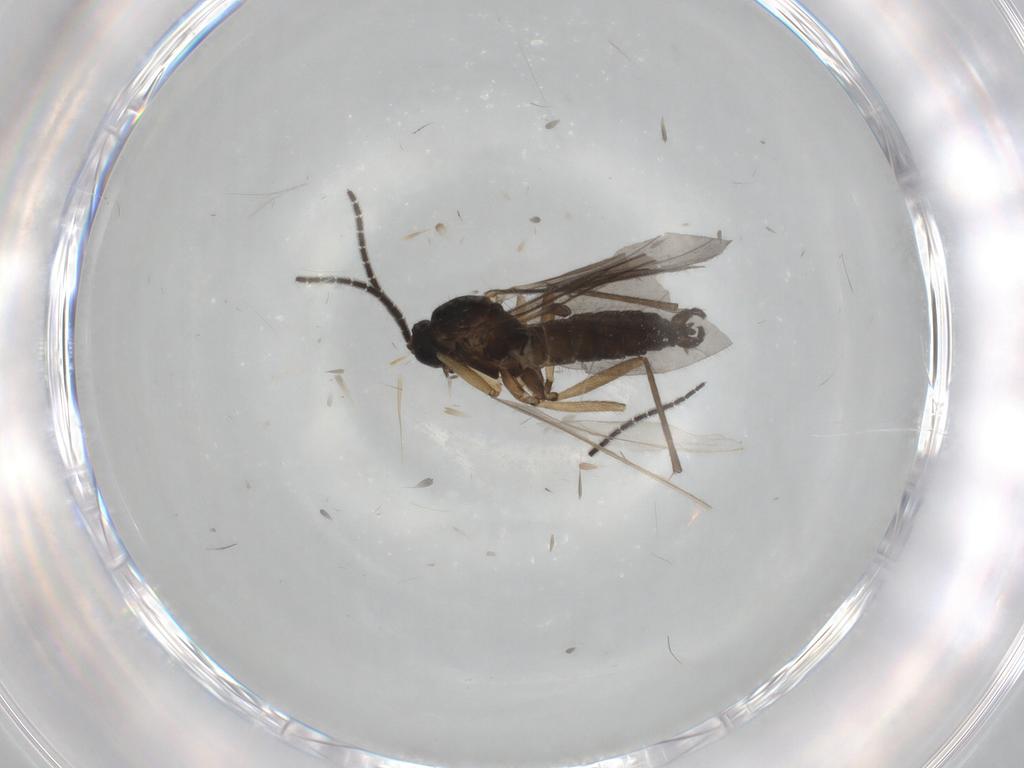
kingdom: Animalia
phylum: Arthropoda
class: Insecta
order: Diptera
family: Sciaridae
